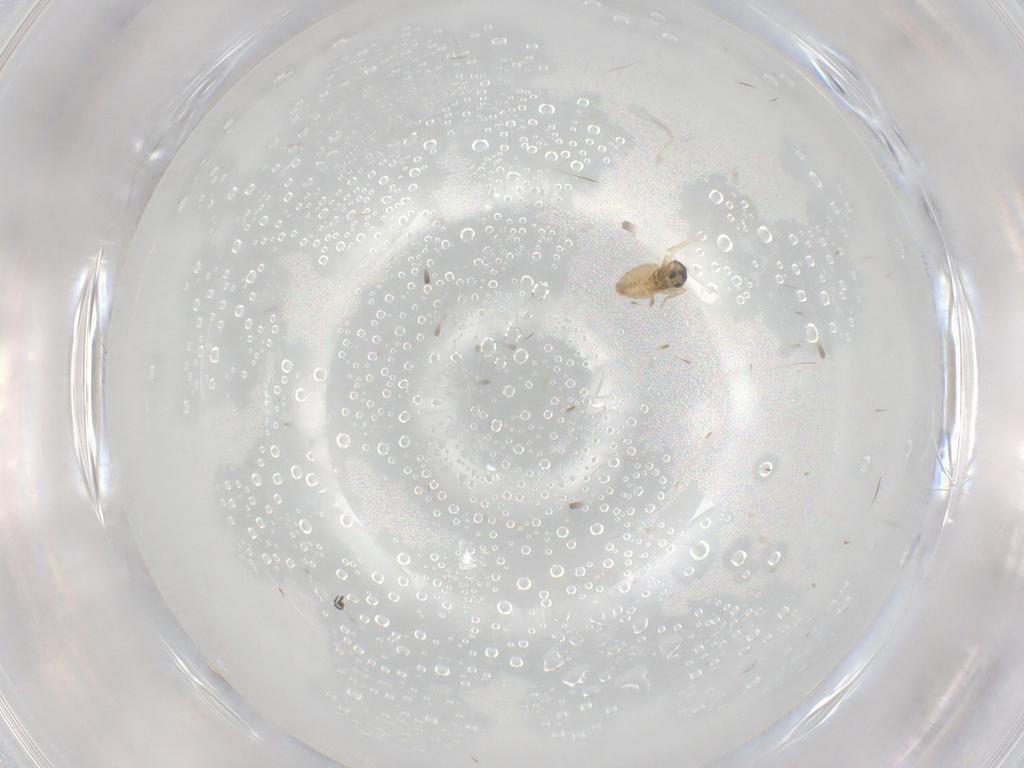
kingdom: Animalia
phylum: Arthropoda
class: Insecta
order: Diptera
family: Cecidomyiidae
